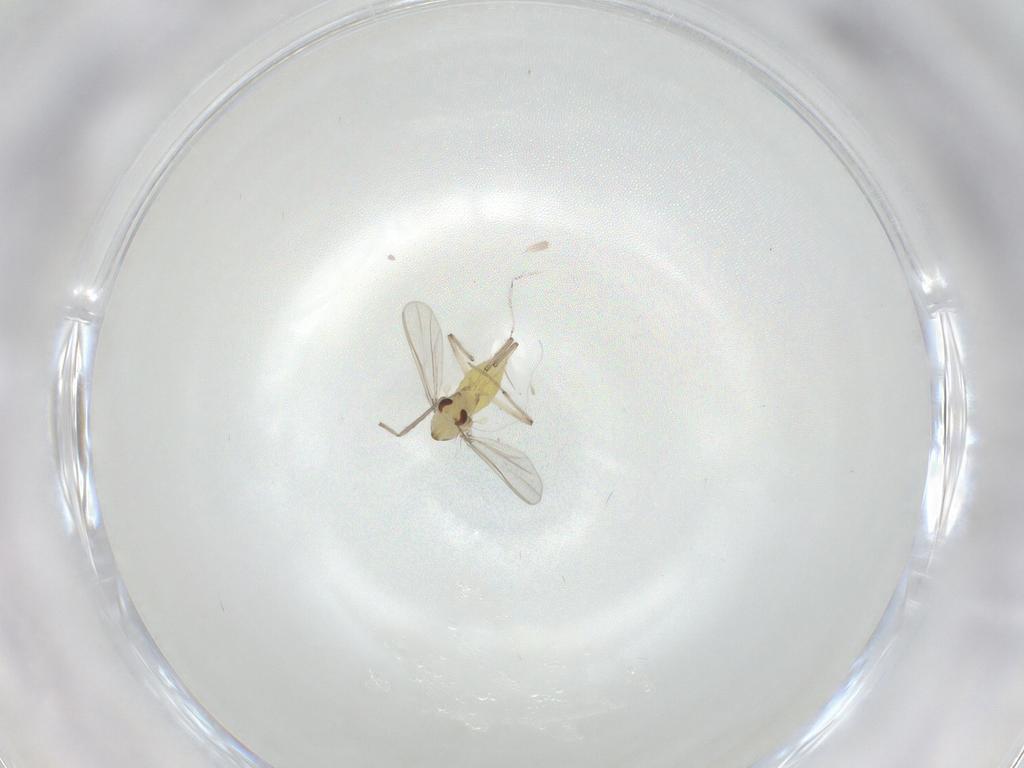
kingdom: Animalia
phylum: Arthropoda
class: Insecta
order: Diptera
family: Chironomidae
